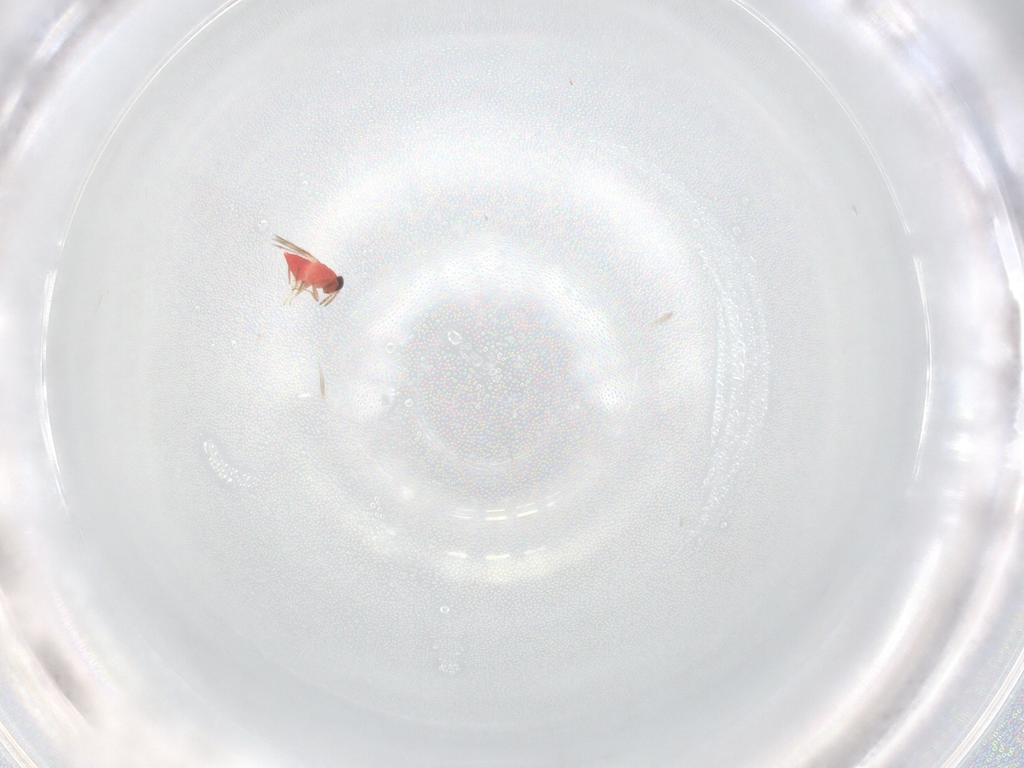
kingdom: Animalia
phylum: Arthropoda
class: Insecta
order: Hymenoptera
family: Trichogrammatidae
